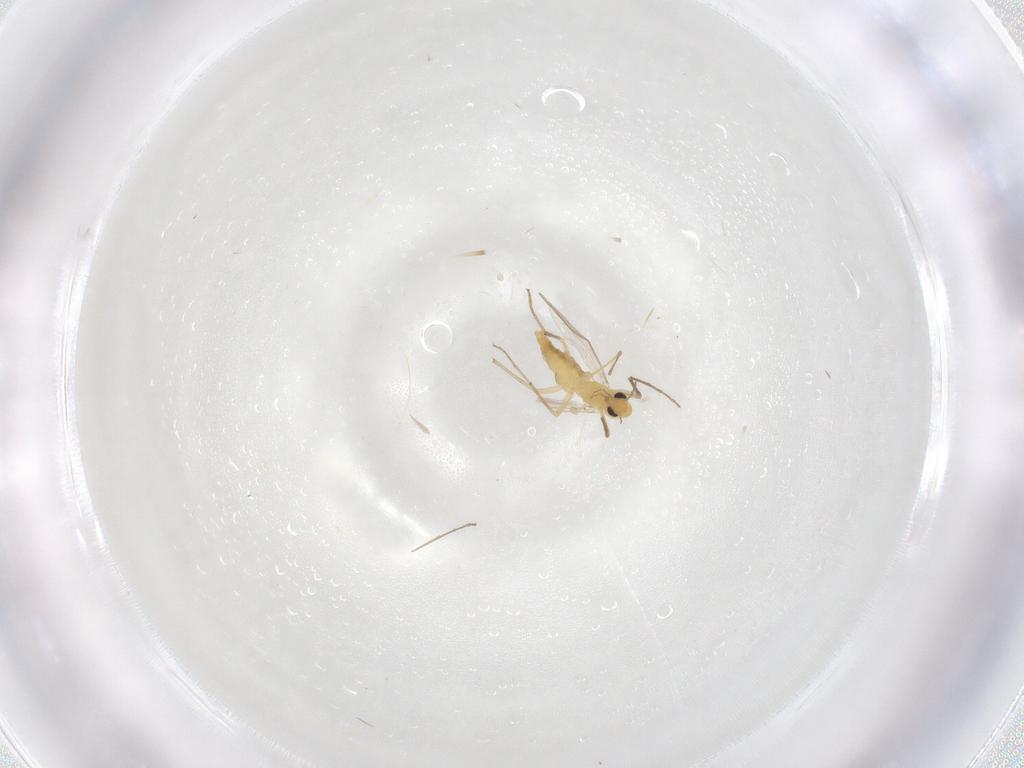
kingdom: Animalia
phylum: Arthropoda
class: Insecta
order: Diptera
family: Chironomidae
